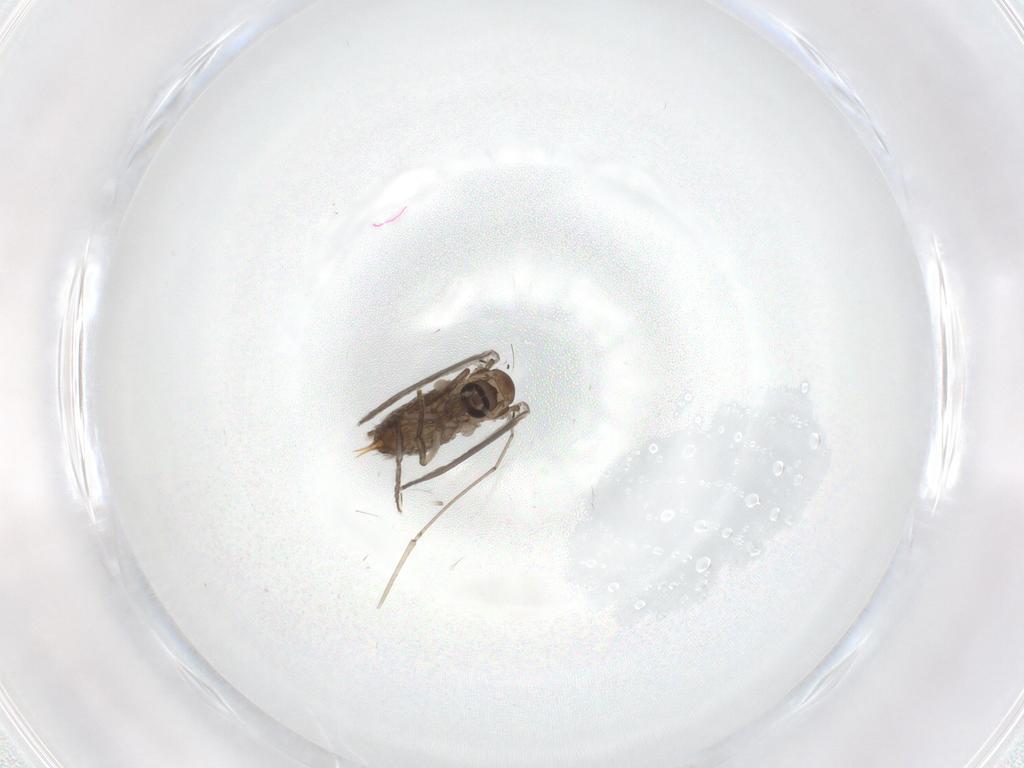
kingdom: Animalia
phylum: Arthropoda
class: Insecta
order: Diptera
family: Psychodidae
